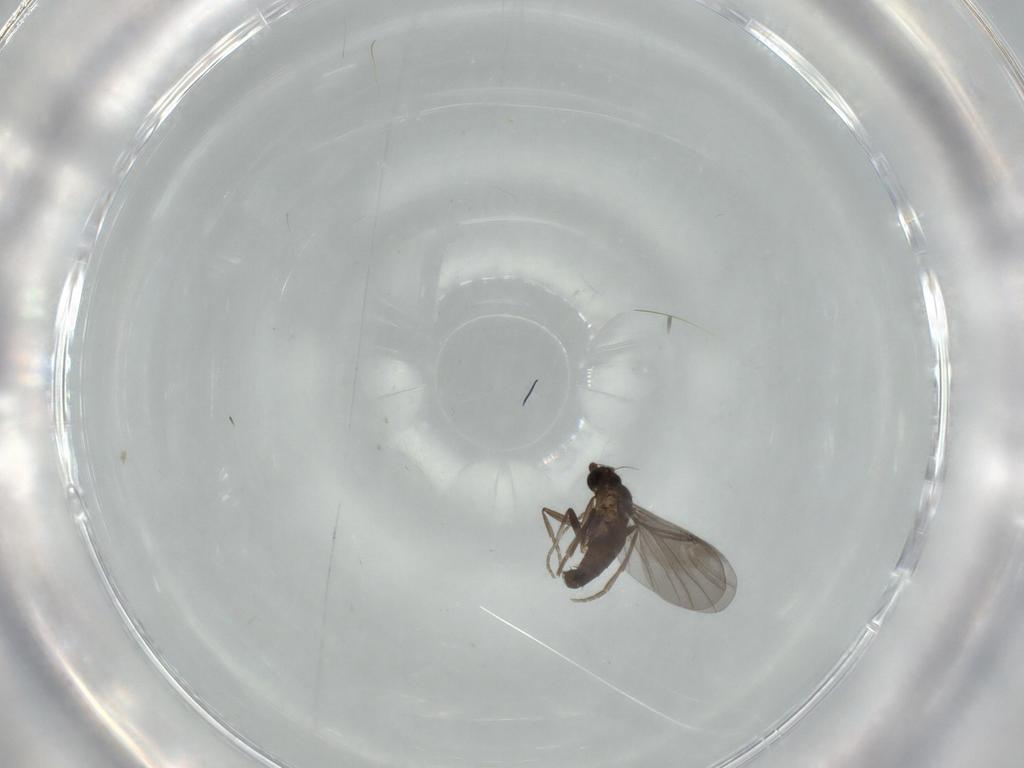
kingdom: Animalia
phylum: Arthropoda
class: Insecta
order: Diptera
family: Phoridae
